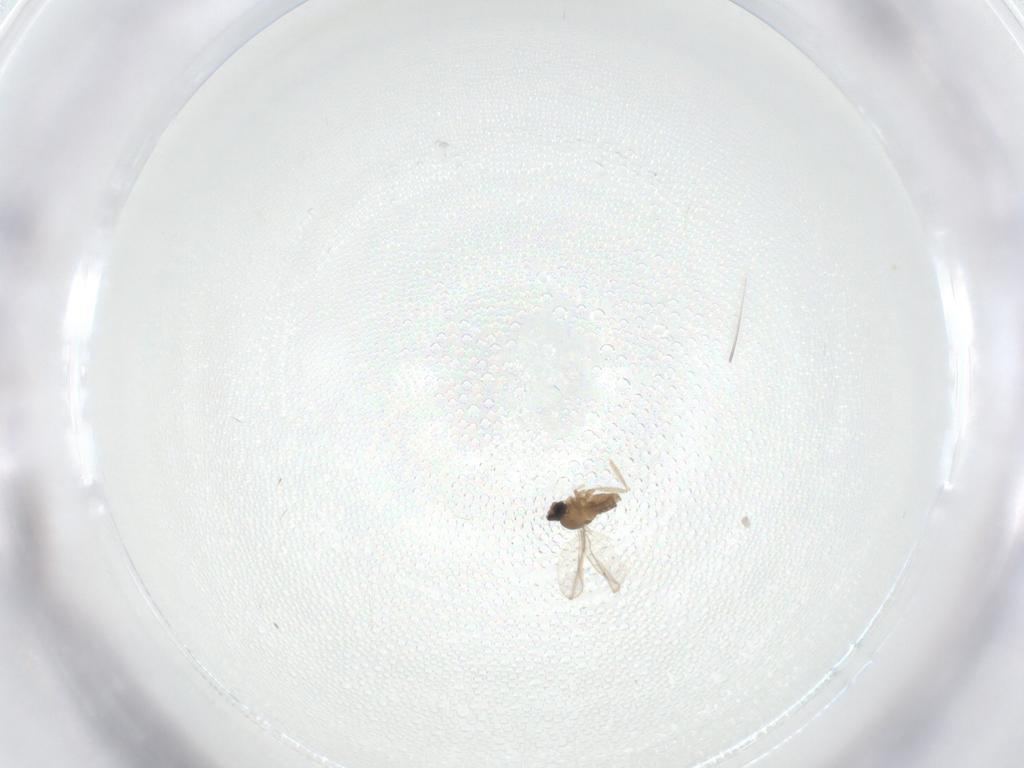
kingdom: Animalia
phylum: Arthropoda
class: Insecta
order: Diptera
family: Cecidomyiidae
